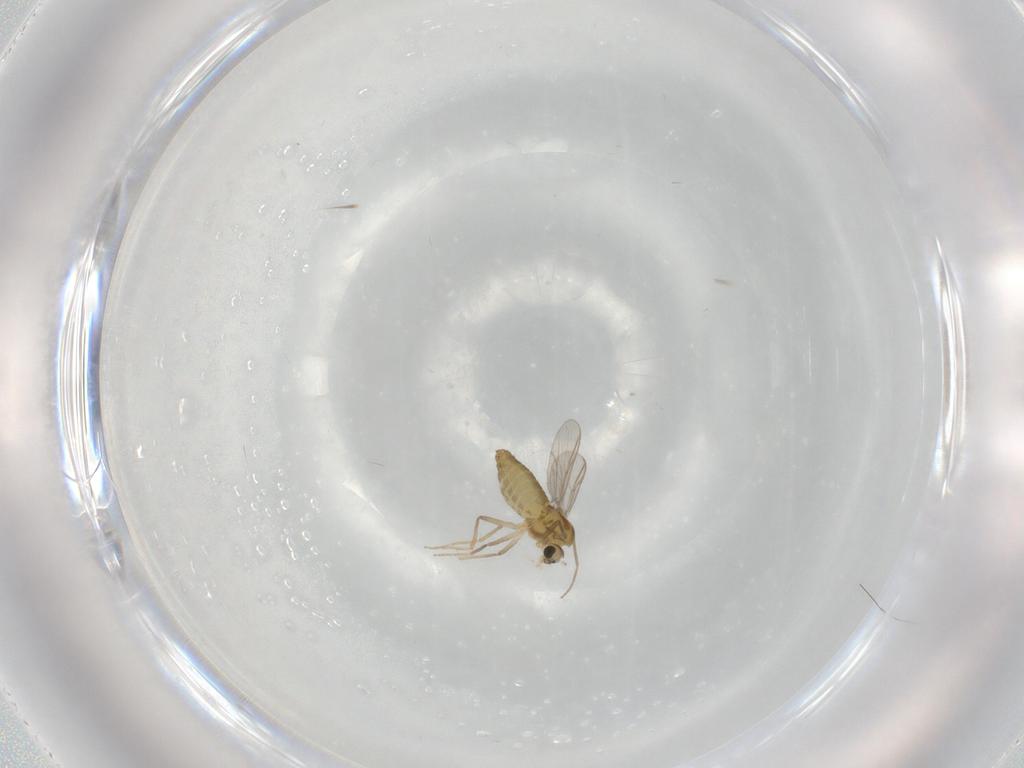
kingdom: Animalia
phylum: Arthropoda
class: Insecta
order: Diptera
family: Chironomidae
